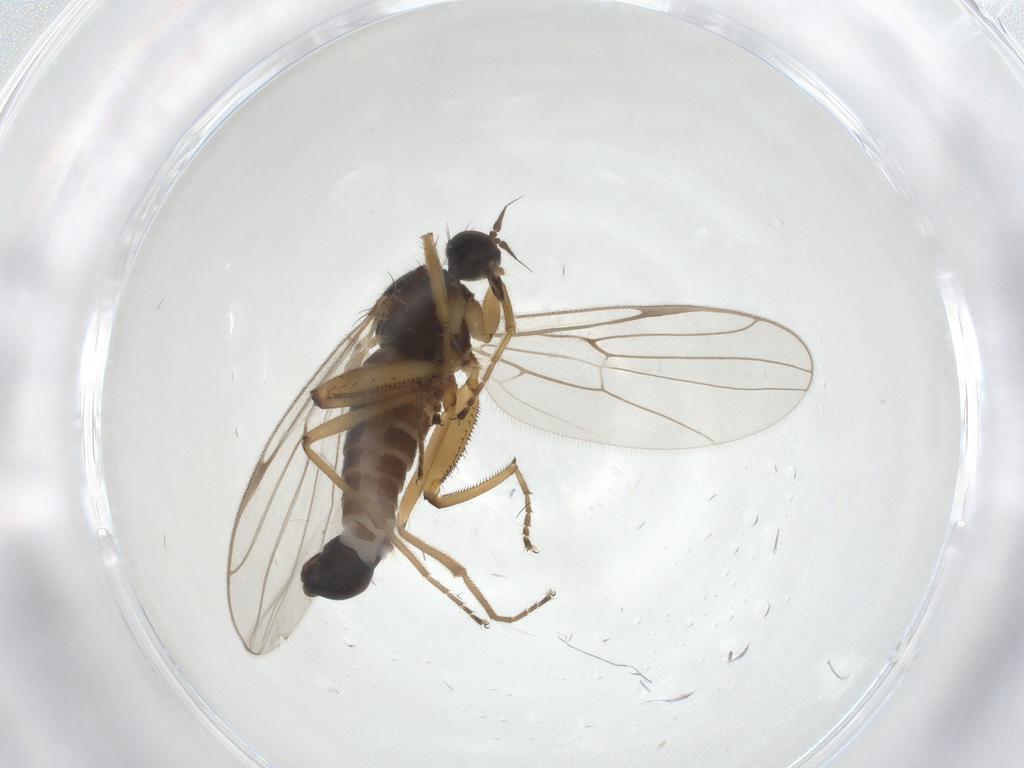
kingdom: Animalia
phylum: Arthropoda
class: Insecta
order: Diptera
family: Hybotidae
